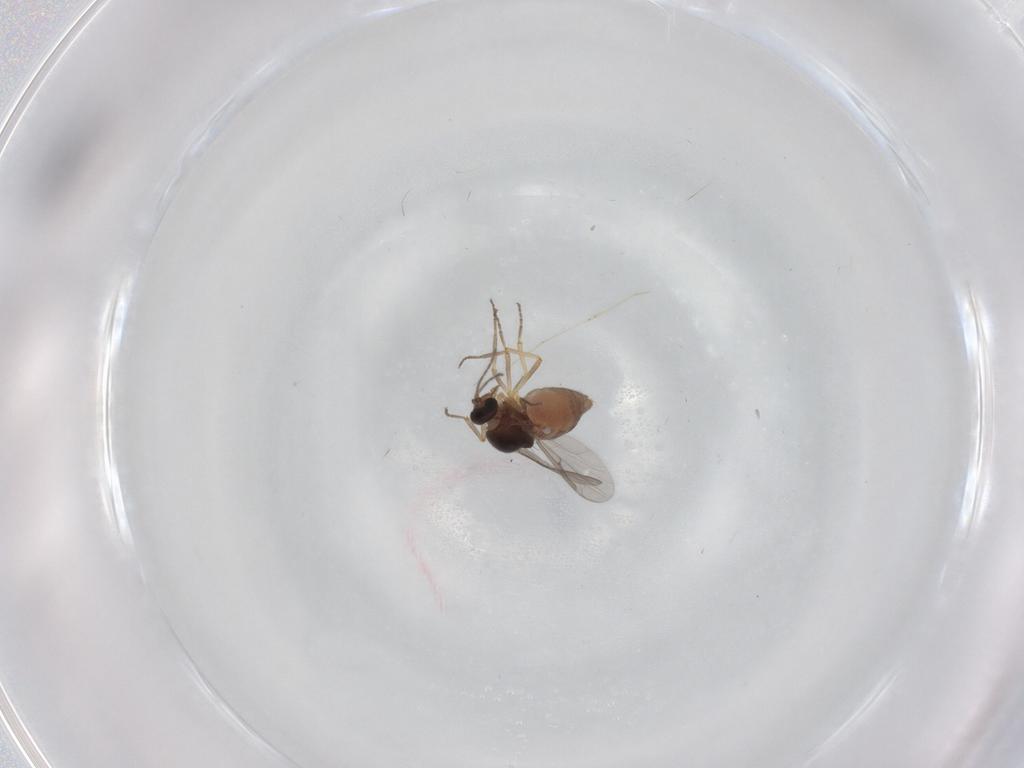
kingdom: Animalia
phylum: Arthropoda
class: Insecta
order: Diptera
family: Ceratopogonidae
